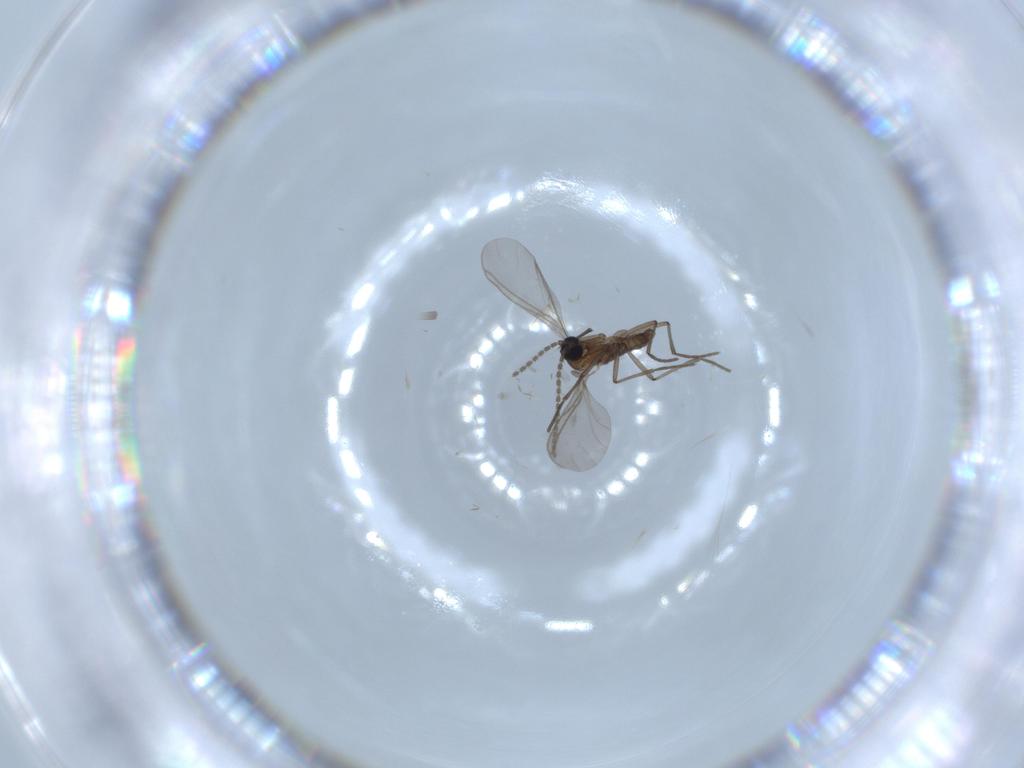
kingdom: Animalia
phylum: Arthropoda
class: Insecta
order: Diptera
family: Sciaridae
